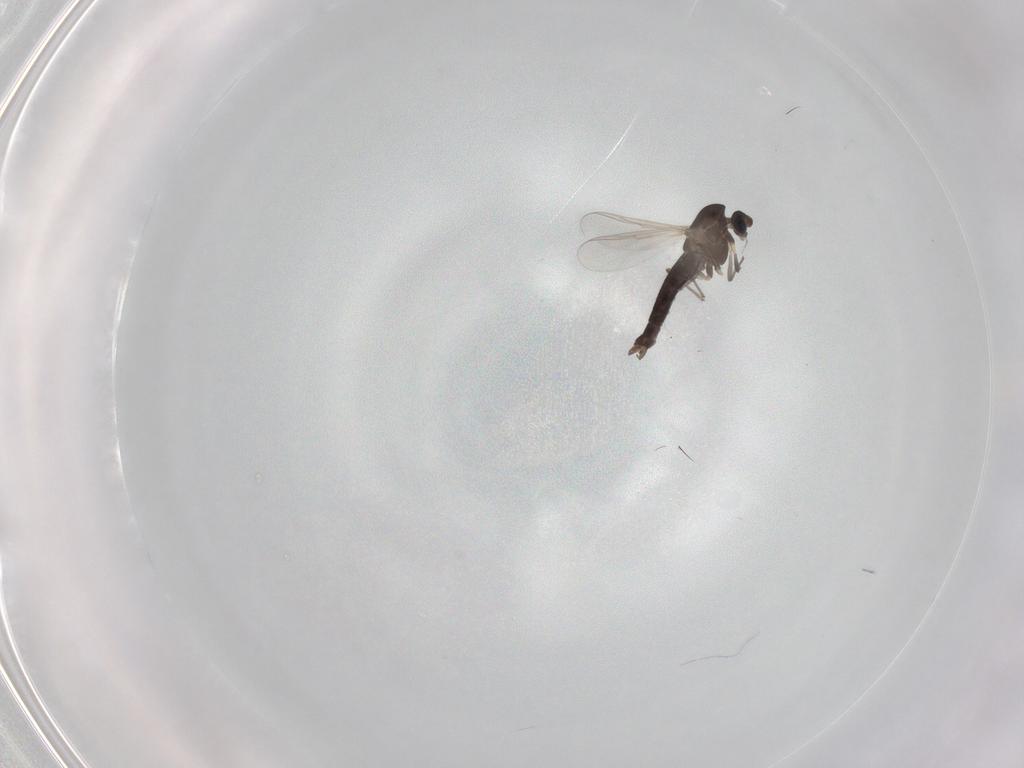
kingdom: Animalia
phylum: Arthropoda
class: Insecta
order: Diptera
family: Chironomidae
